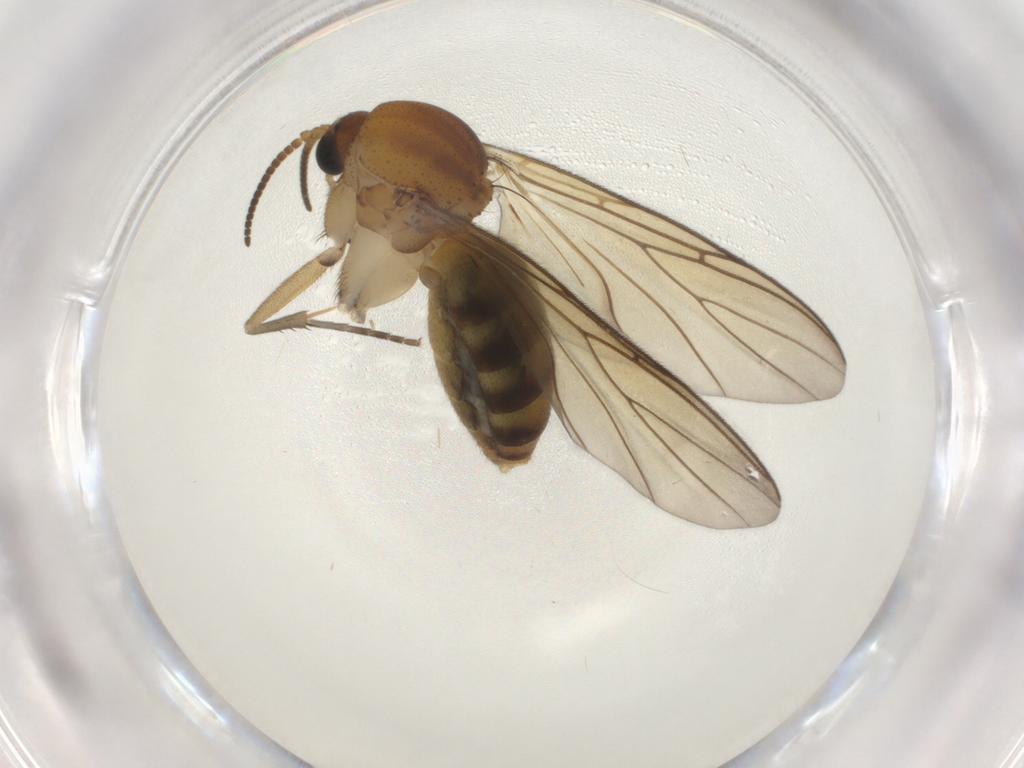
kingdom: Animalia
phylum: Arthropoda
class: Insecta
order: Diptera
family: Mycetophilidae
